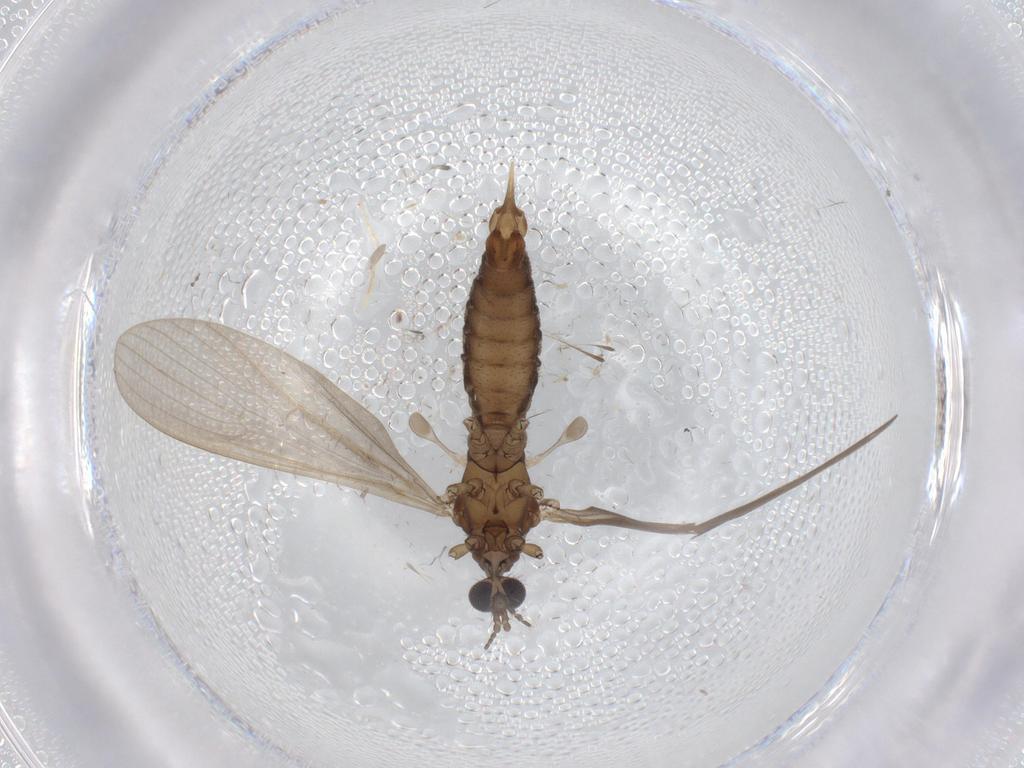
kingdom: Animalia
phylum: Arthropoda
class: Insecta
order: Diptera
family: Limoniidae
